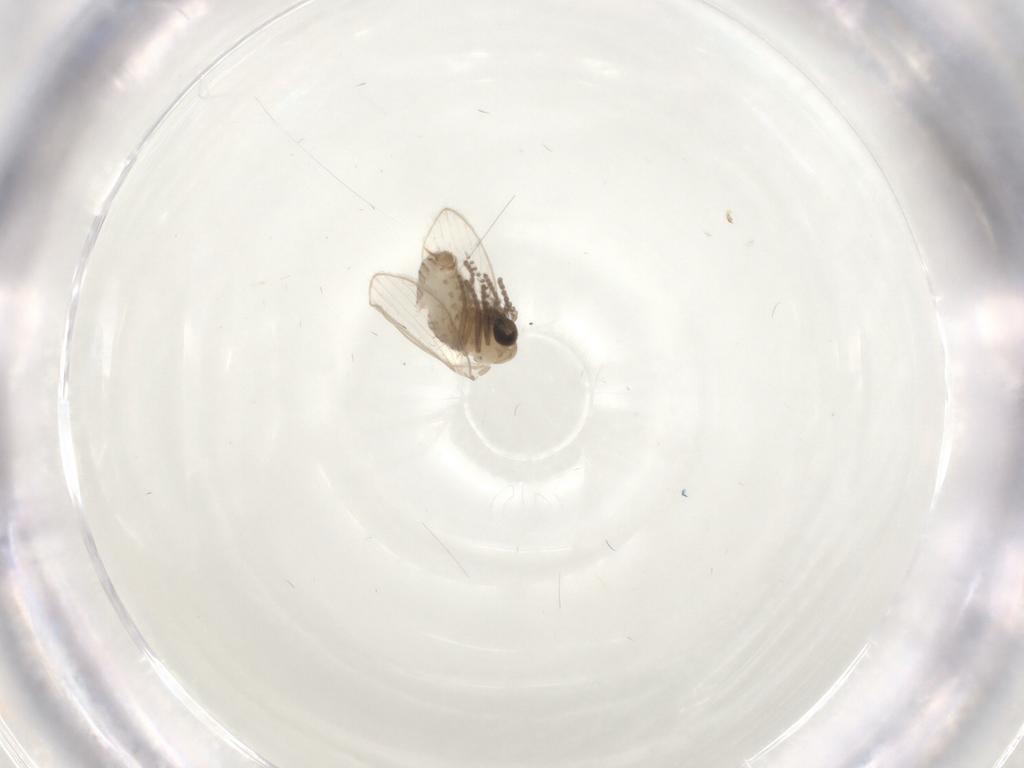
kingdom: Animalia
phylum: Arthropoda
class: Insecta
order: Diptera
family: Psychodidae
